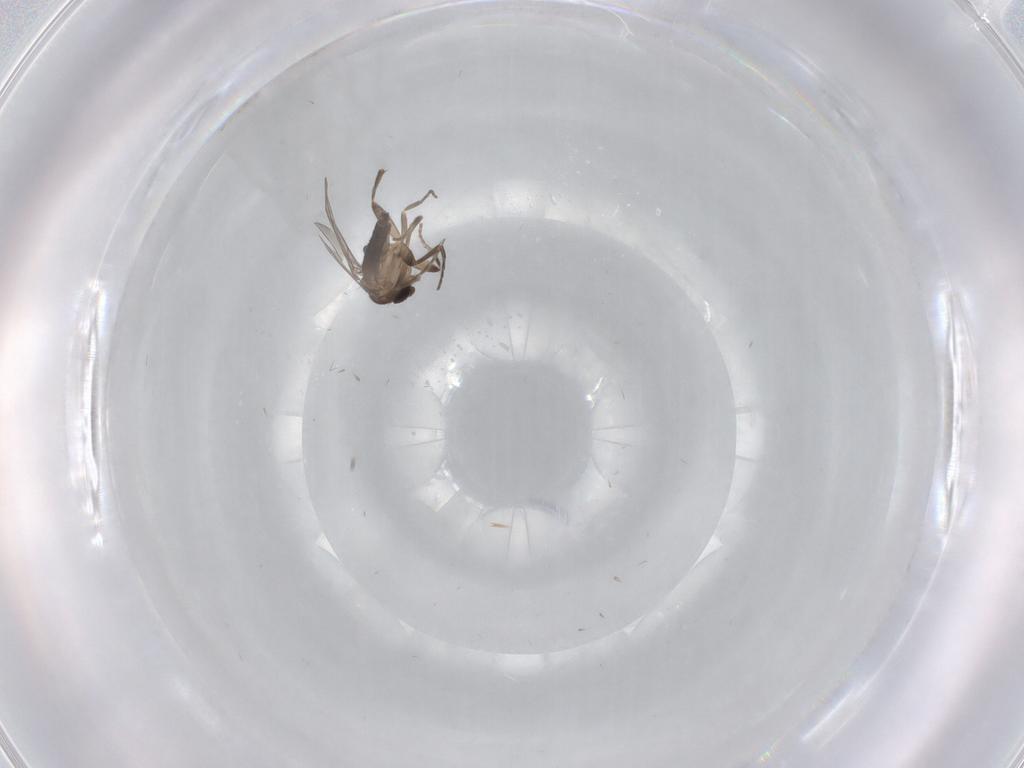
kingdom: Animalia
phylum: Arthropoda
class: Insecta
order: Diptera
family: Phoridae
